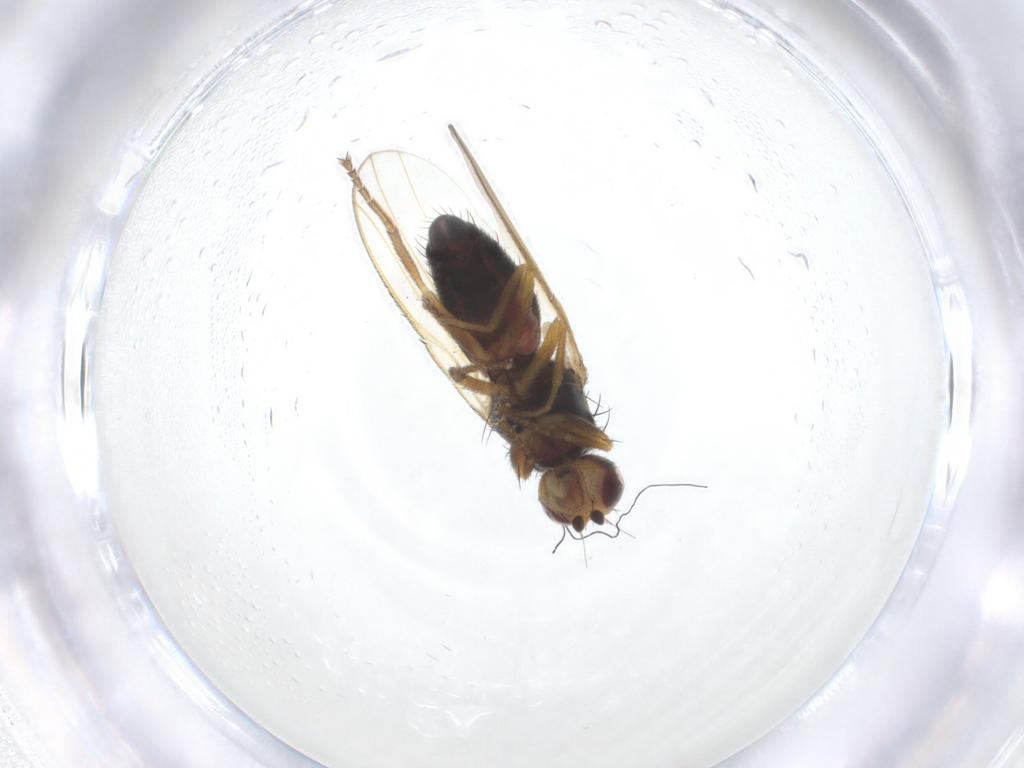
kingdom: Animalia
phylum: Arthropoda
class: Insecta
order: Diptera
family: Heleomyzidae
